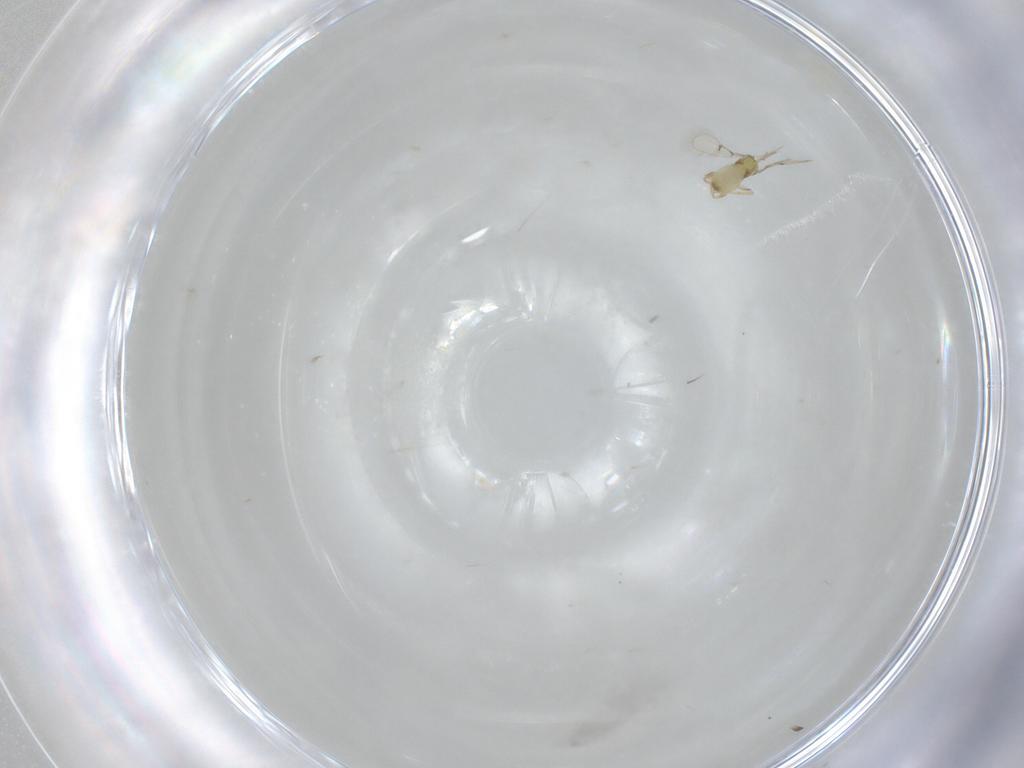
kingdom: Animalia
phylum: Arthropoda
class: Insecta
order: Hymenoptera
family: Trichogrammatidae
